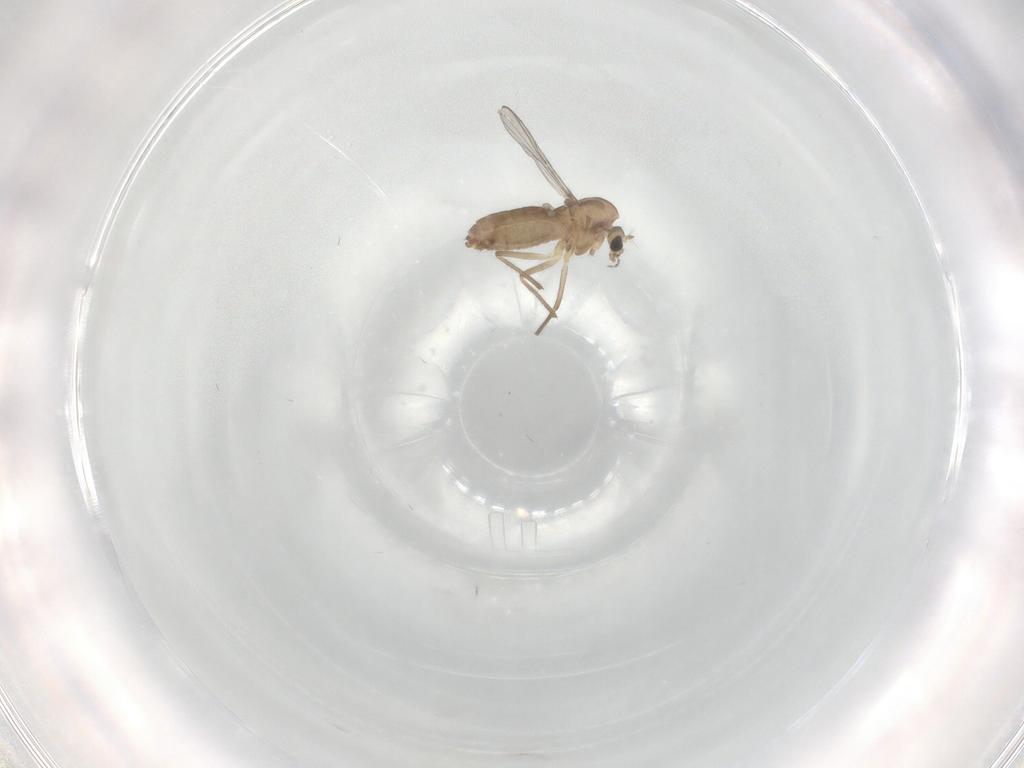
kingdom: Animalia
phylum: Arthropoda
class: Insecta
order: Diptera
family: Chironomidae
